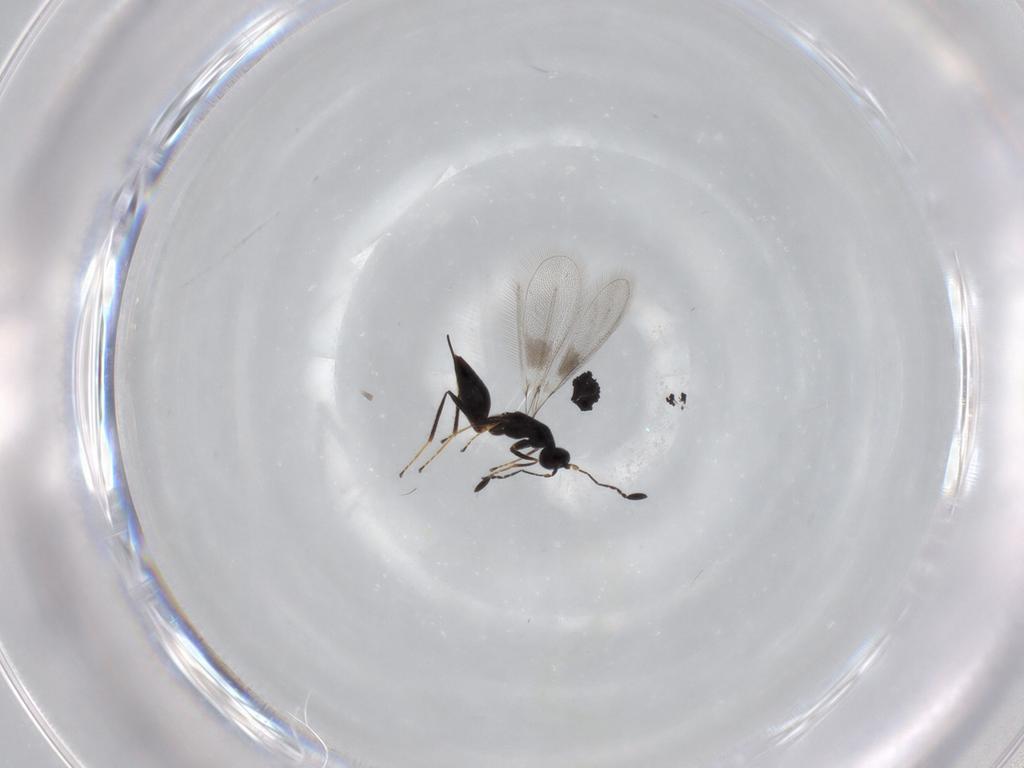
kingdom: Animalia
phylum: Arthropoda
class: Insecta
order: Hymenoptera
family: Mymaridae
